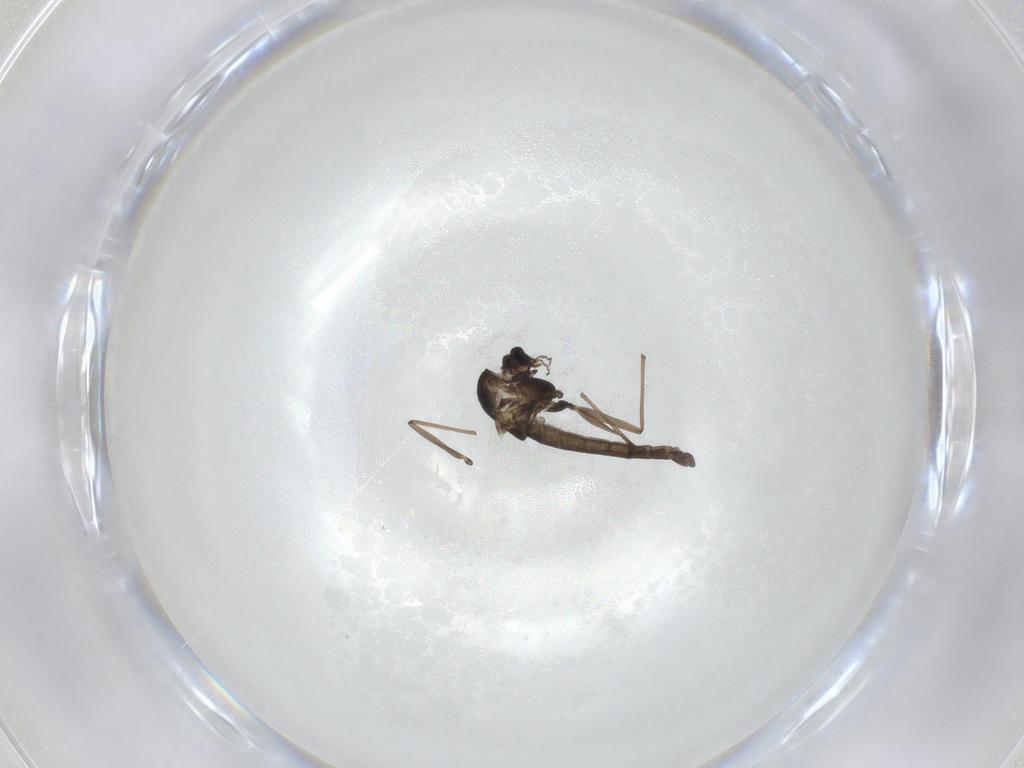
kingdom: Animalia
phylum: Arthropoda
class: Insecta
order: Diptera
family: Chironomidae
